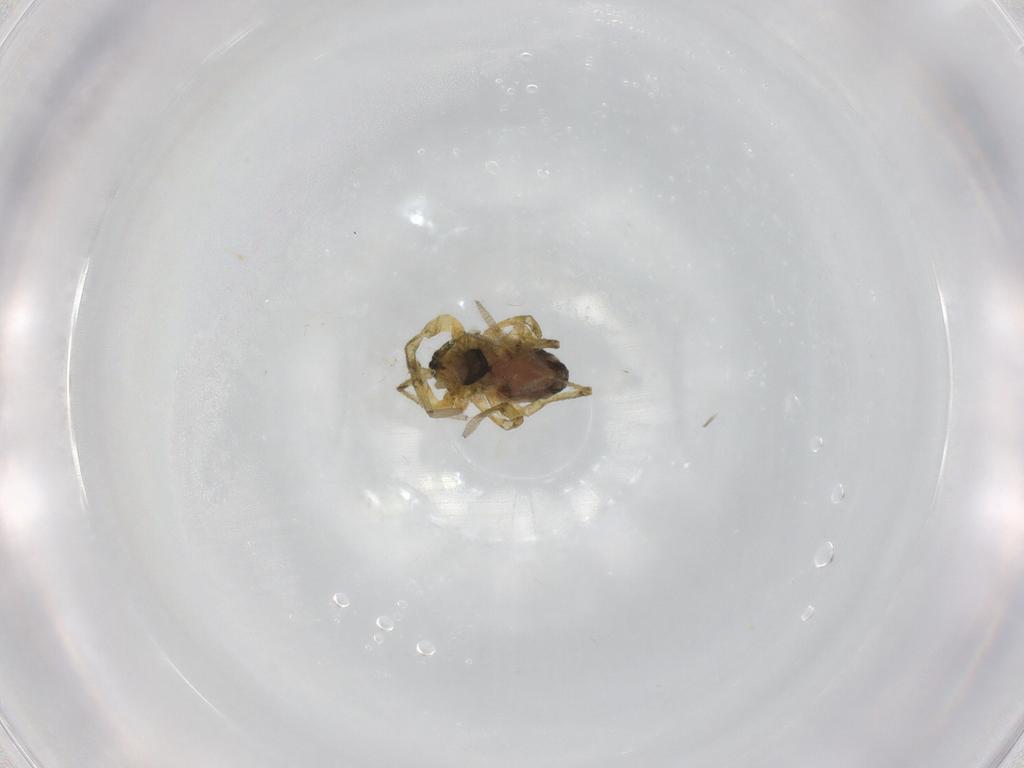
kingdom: Animalia
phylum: Arthropoda
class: Arachnida
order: Araneae
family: Linyphiidae
